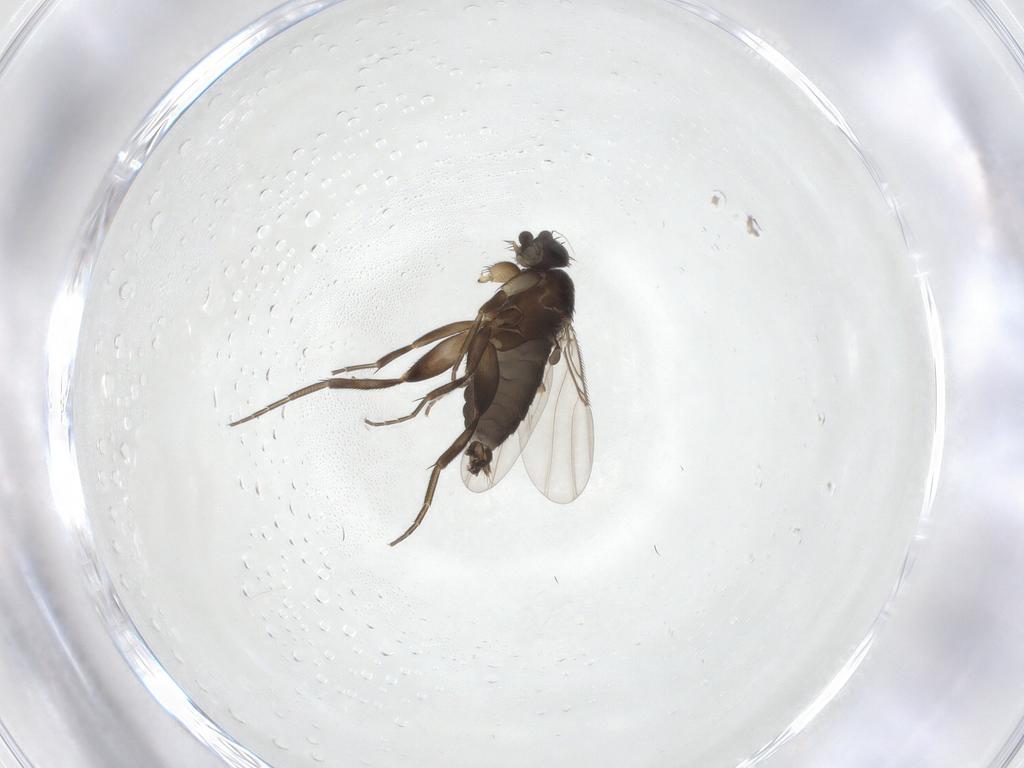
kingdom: Animalia
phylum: Arthropoda
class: Insecta
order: Diptera
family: Phoridae
